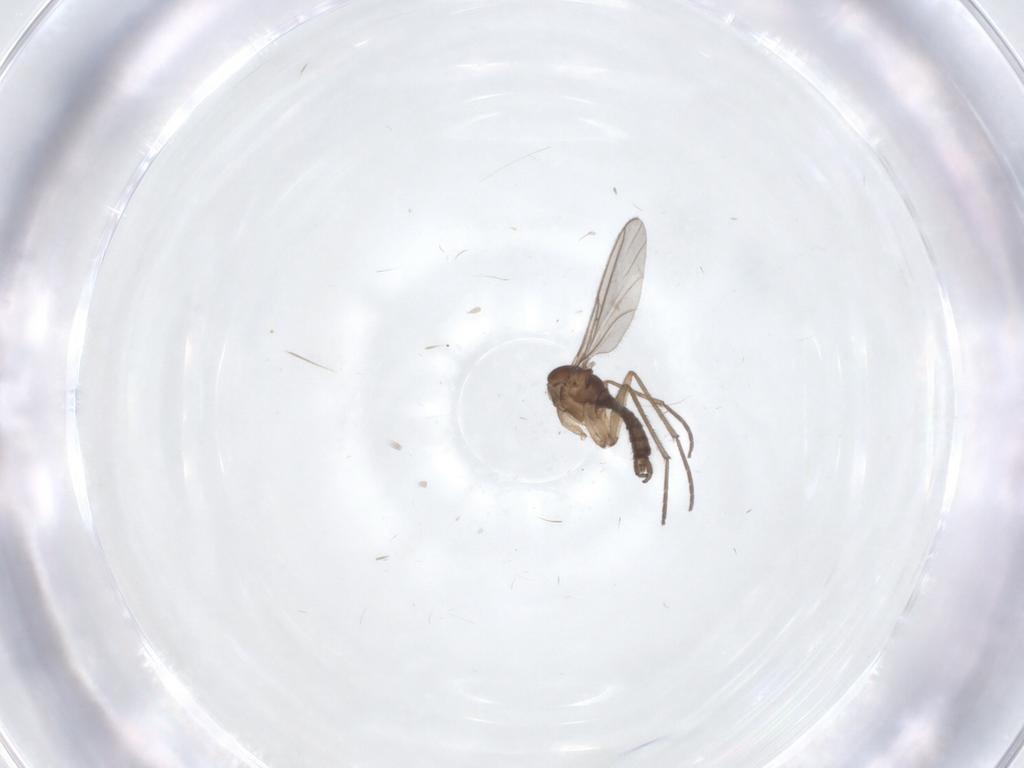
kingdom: Animalia
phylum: Arthropoda
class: Insecta
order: Diptera
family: Sciaridae
